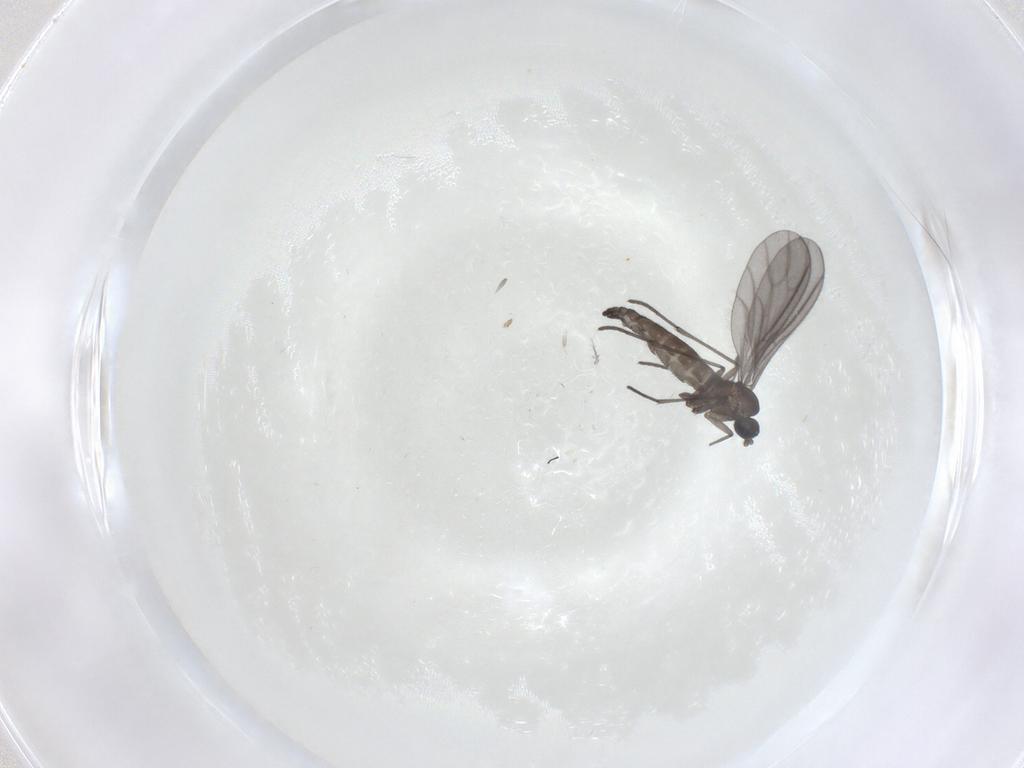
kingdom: Animalia
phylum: Arthropoda
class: Insecta
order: Diptera
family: Sciaridae
